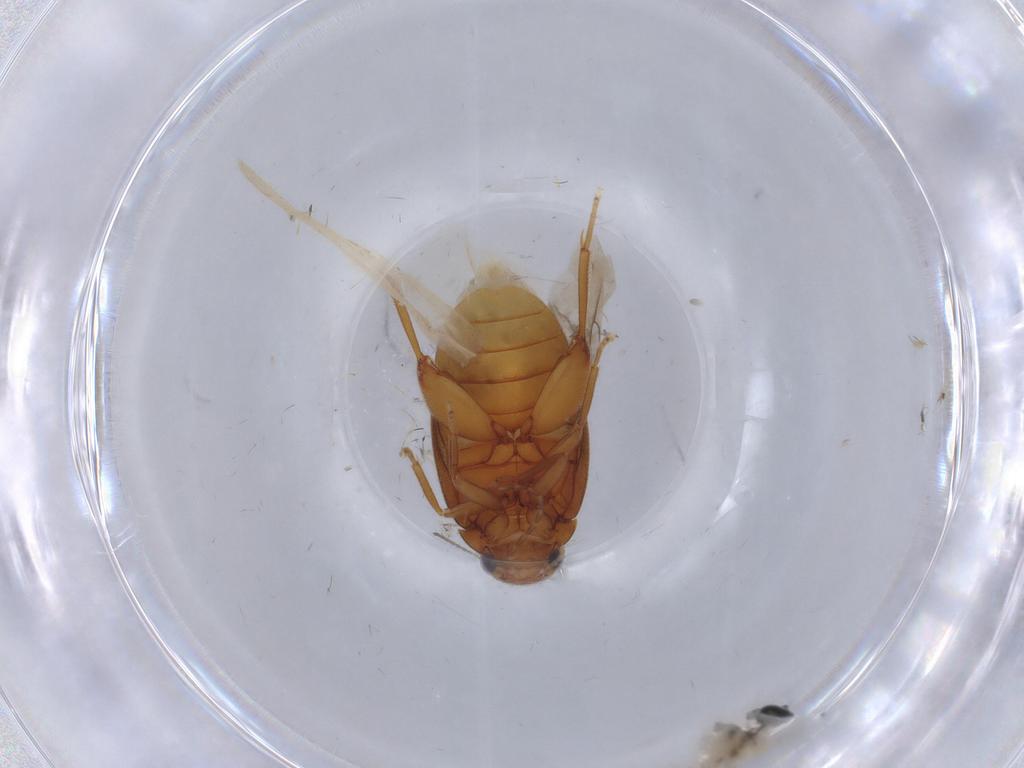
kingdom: Animalia
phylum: Arthropoda
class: Insecta
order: Coleoptera
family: Scirtidae
